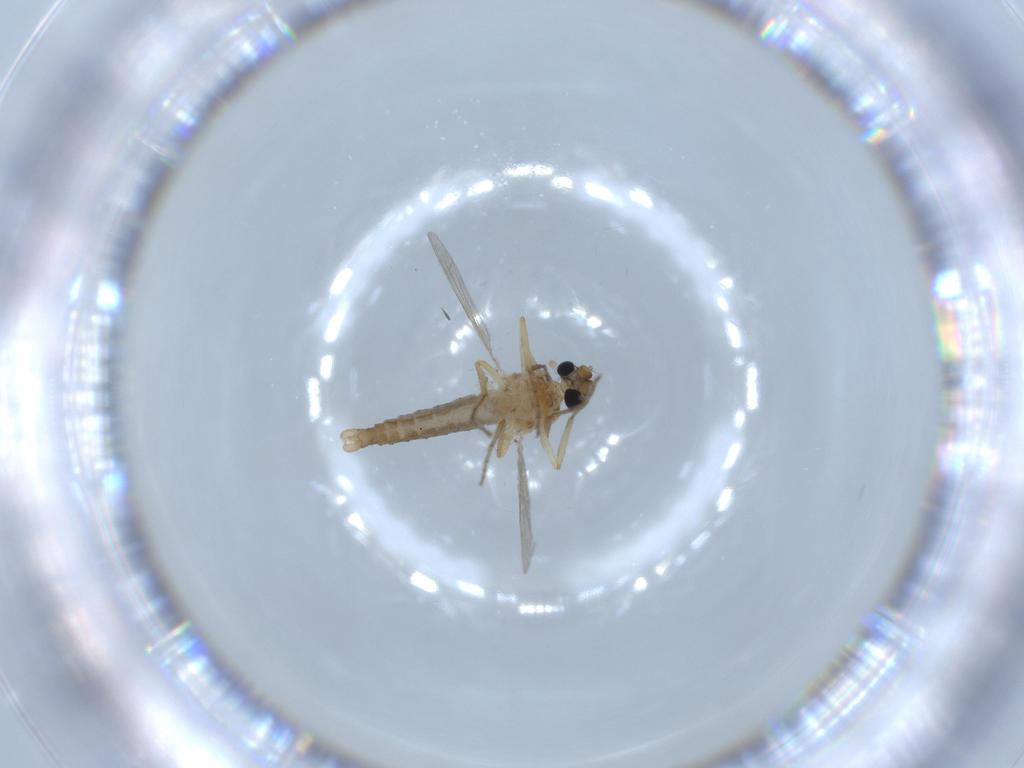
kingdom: Animalia
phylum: Arthropoda
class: Insecta
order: Diptera
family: Ceratopogonidae
